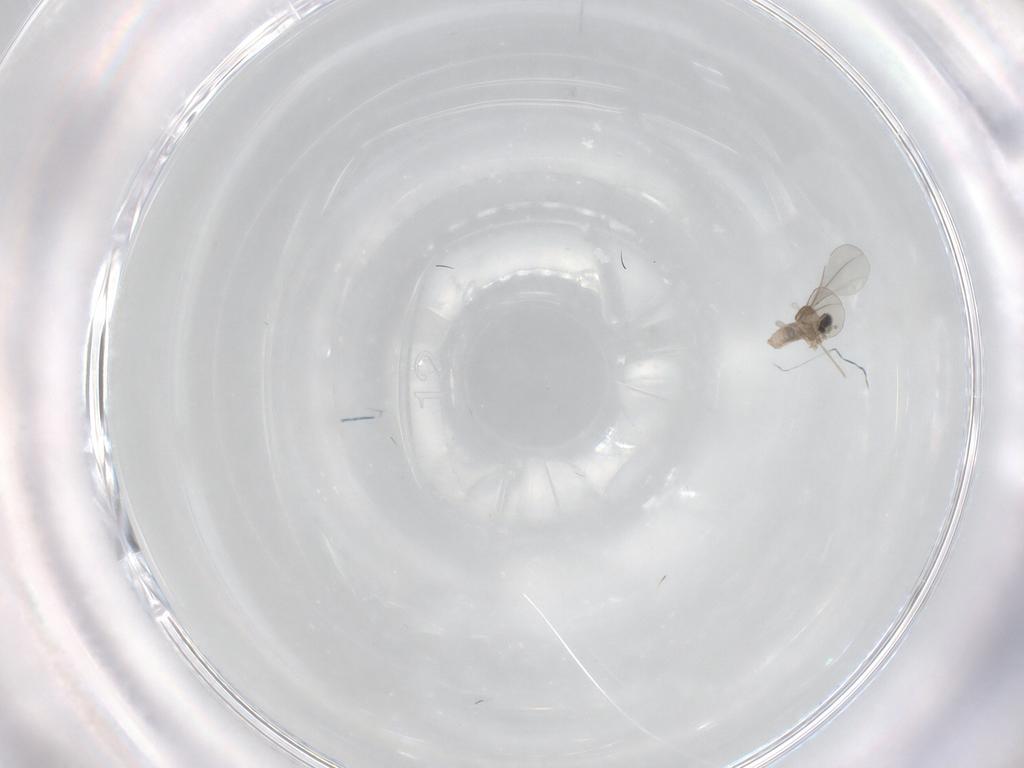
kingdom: Animalia
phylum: Arthropoda
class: Insecta
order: Diptera
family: Cecidomyiidae
